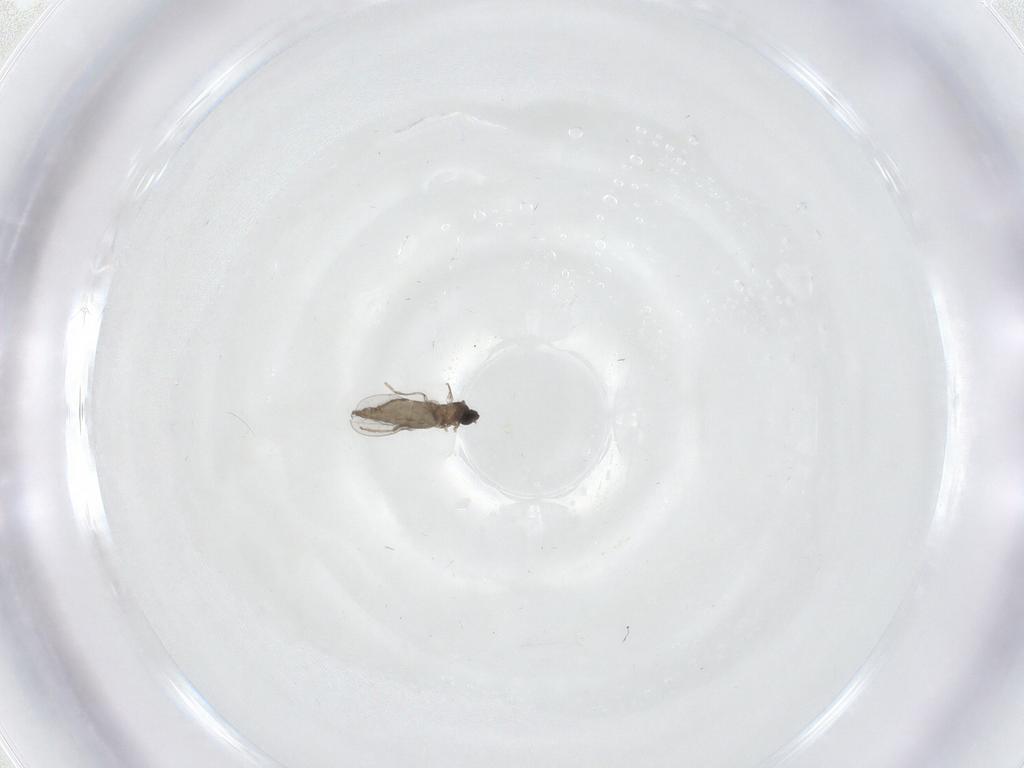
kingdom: Animalia
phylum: Arthropoda
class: Insecta
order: Diptera
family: Cecidomyiidae
